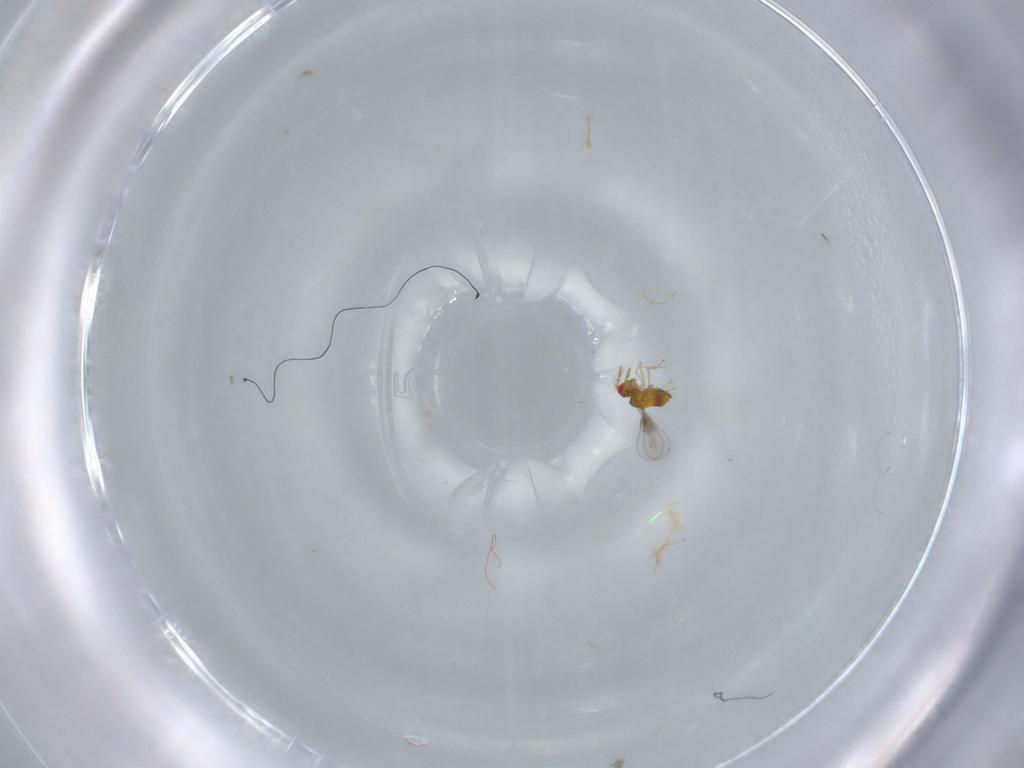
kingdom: Animalia
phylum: Arthropoda
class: Insecta
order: Hymenoptera
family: Trichogrammatidae
